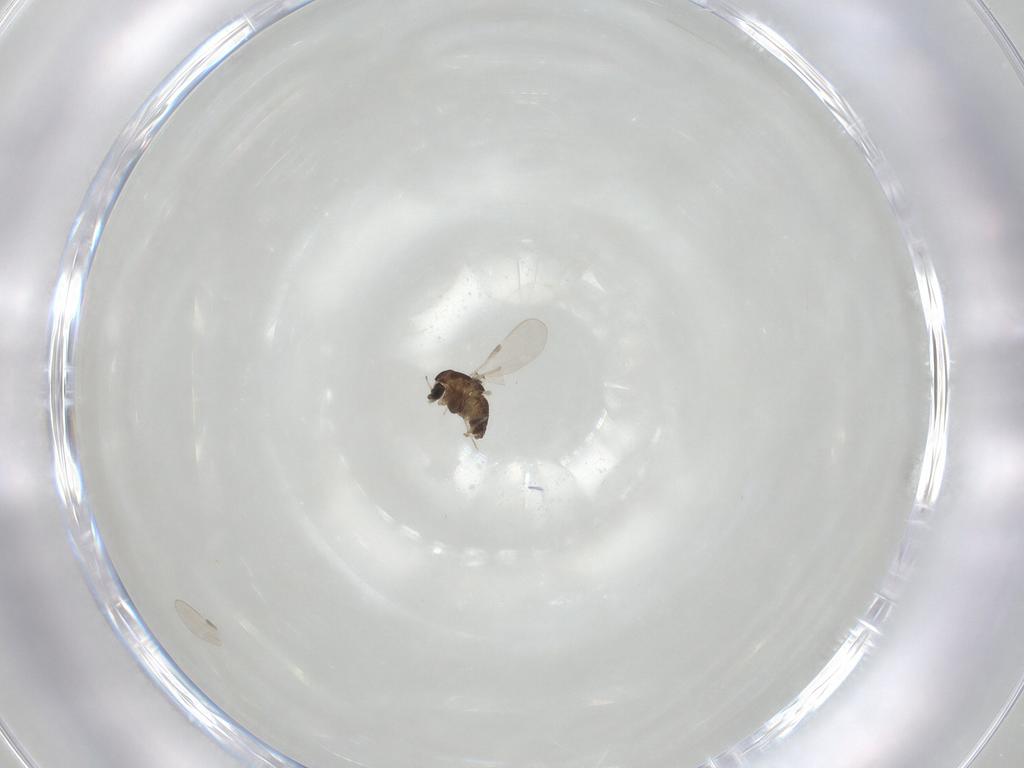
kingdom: Animalia
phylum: Arthropoda
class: Insecta
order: Diptera
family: Chironomidae
